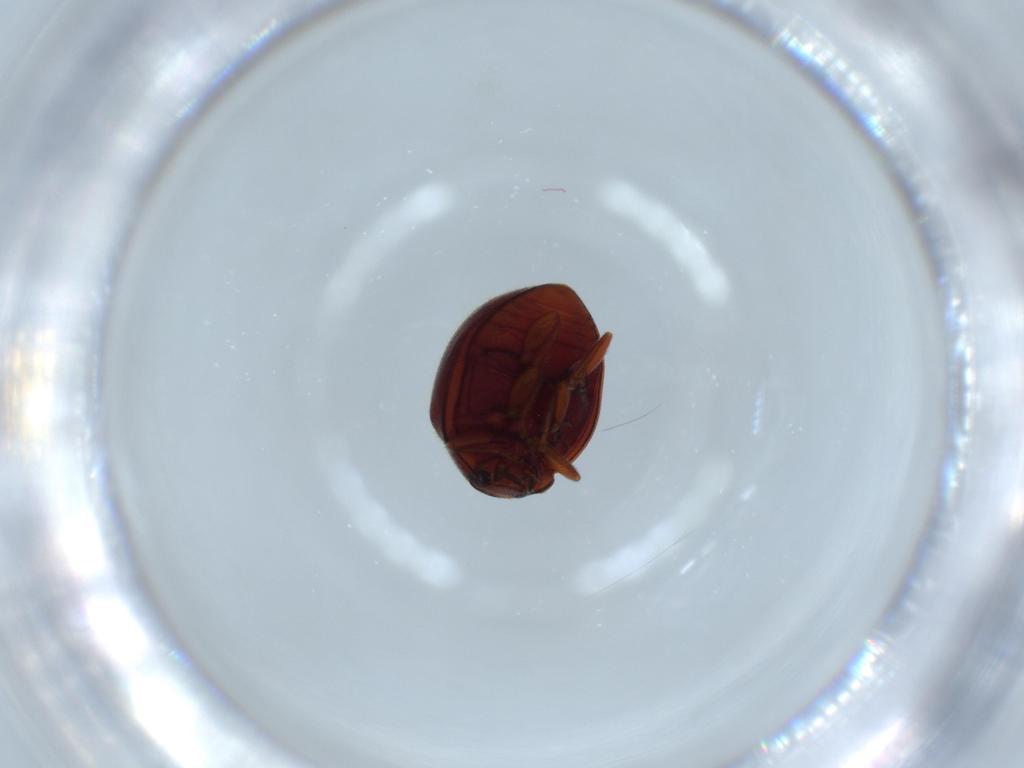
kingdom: Animalia
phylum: Arthropoda
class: Insecta
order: Coleoptera
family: Coccinellidae
